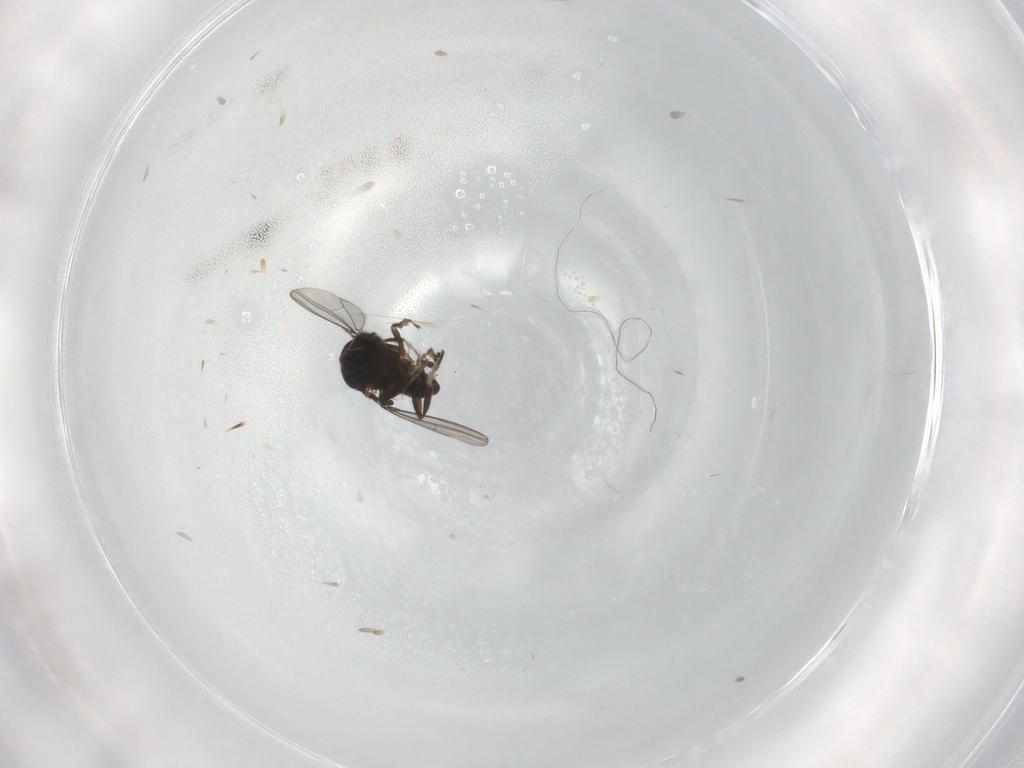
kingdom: Animalia
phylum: Arthropoda
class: Insecta
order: Diptera
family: Dolichopodidae
